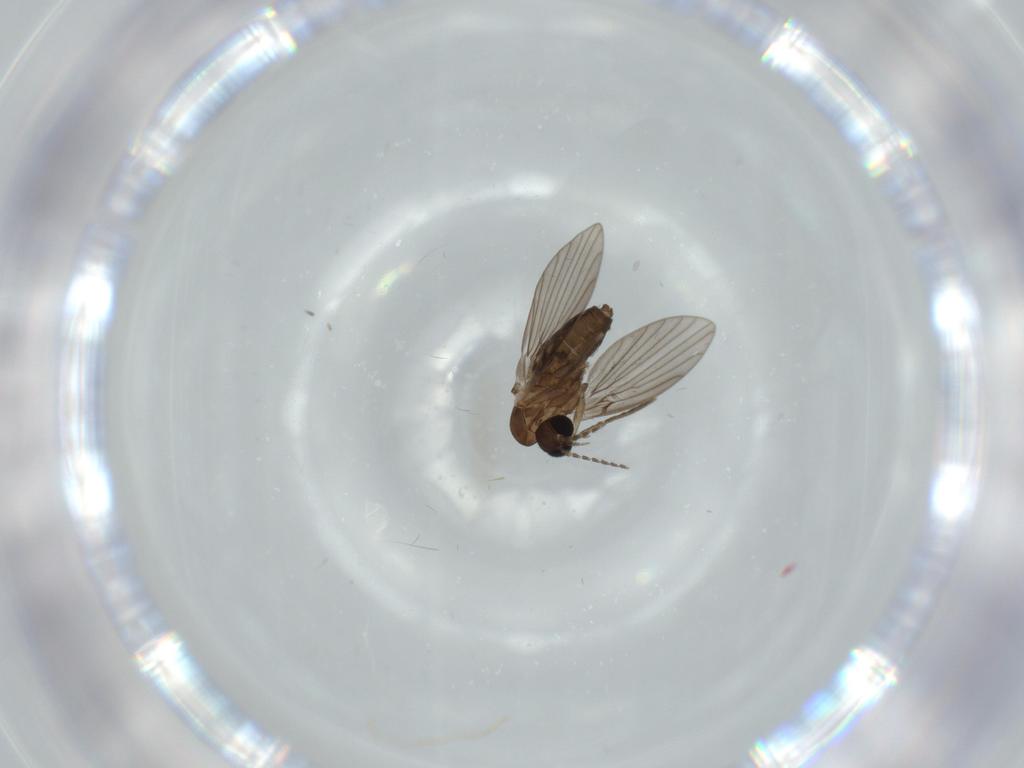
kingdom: Animalia
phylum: Arthropoda
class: Insecta
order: Diptera
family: Psychodidae
